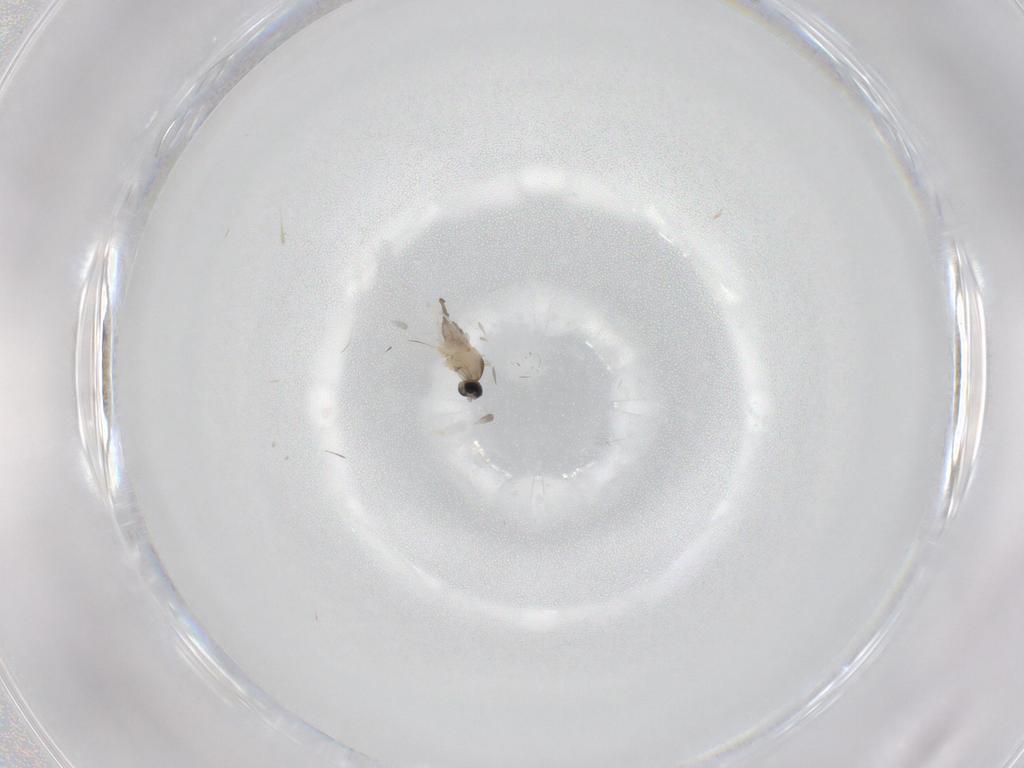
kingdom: Animalia
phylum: Arthropoda
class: Insecta
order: Diptera
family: Cecidomyiidae
